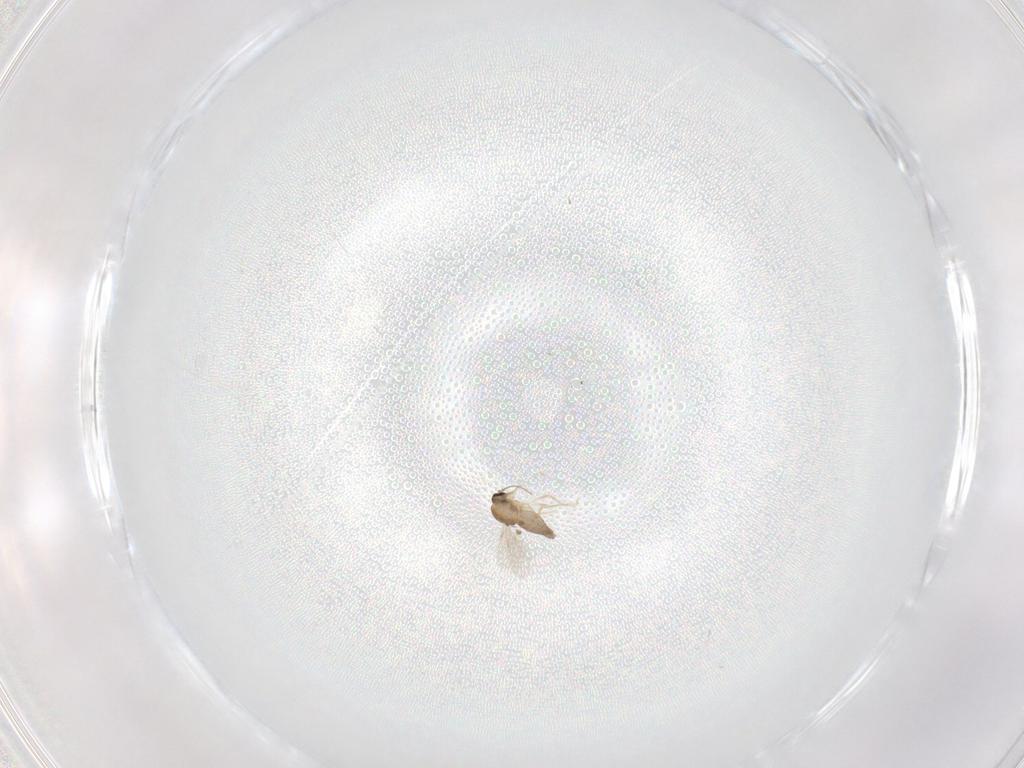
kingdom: Animalia
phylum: Arthropoda
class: Insecta
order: Diptera
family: Ceratopogonidae
